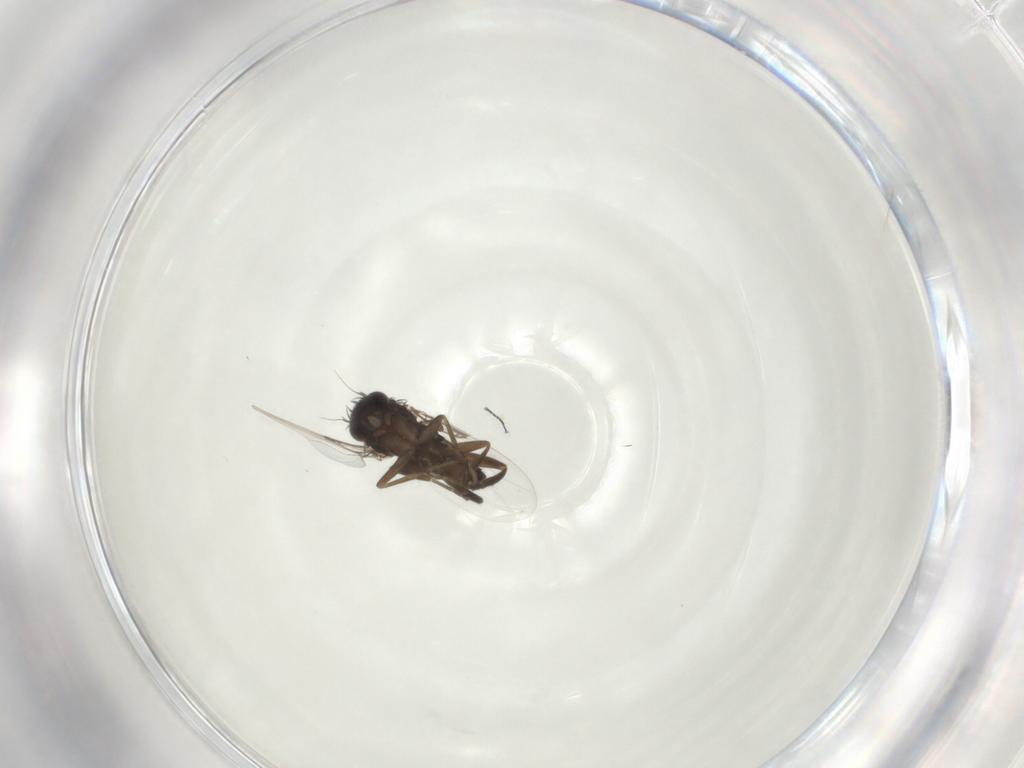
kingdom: Animalia
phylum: Arthropoda
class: Insecta
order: Diptera
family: Phoridae
